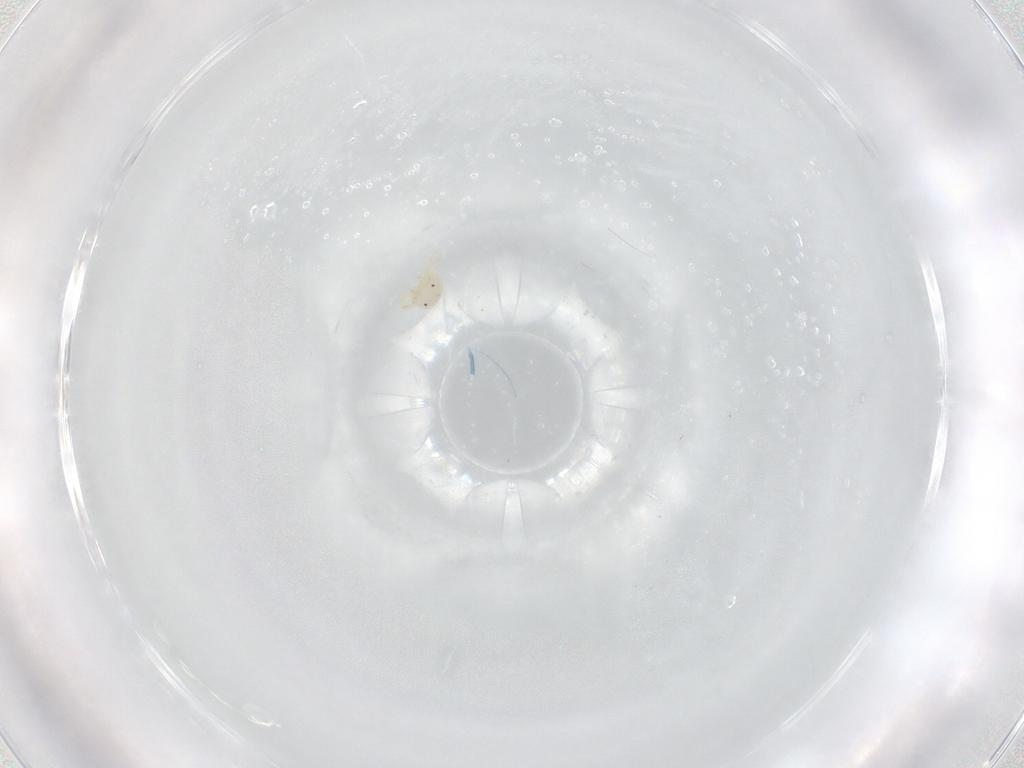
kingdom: Animalia
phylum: Arthropoda
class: Arachnida
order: Trombidiformes
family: Sperchontidae
